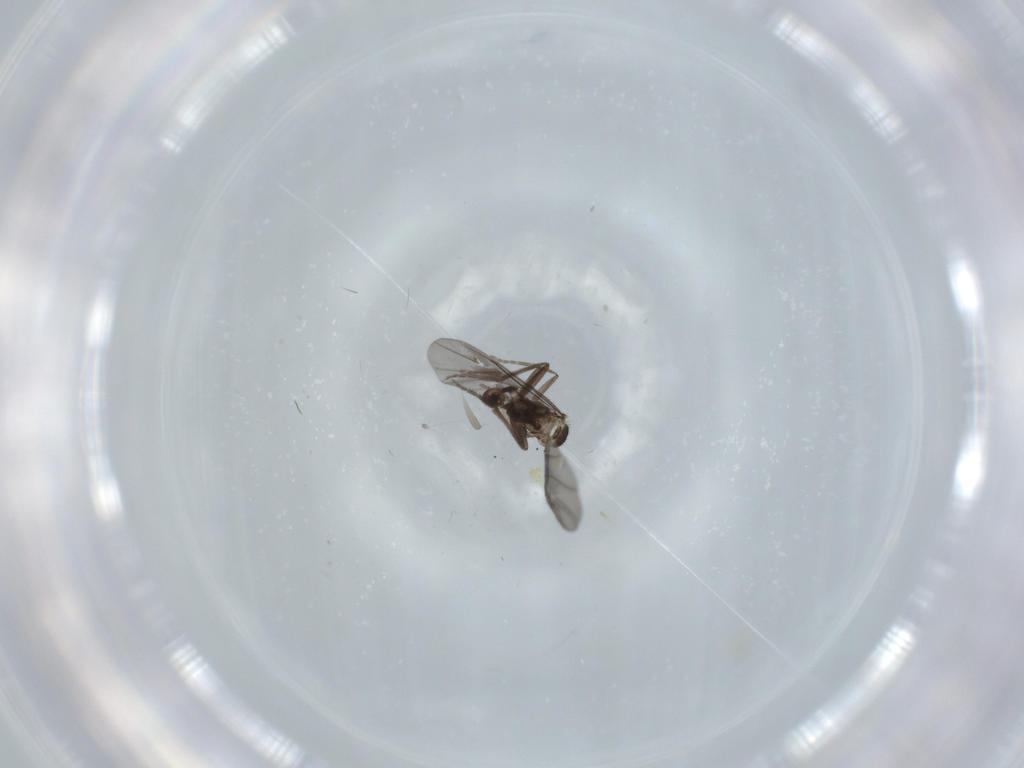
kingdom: Animalia
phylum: Arthropoda
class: Insecta
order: Diptera
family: Phoridae
